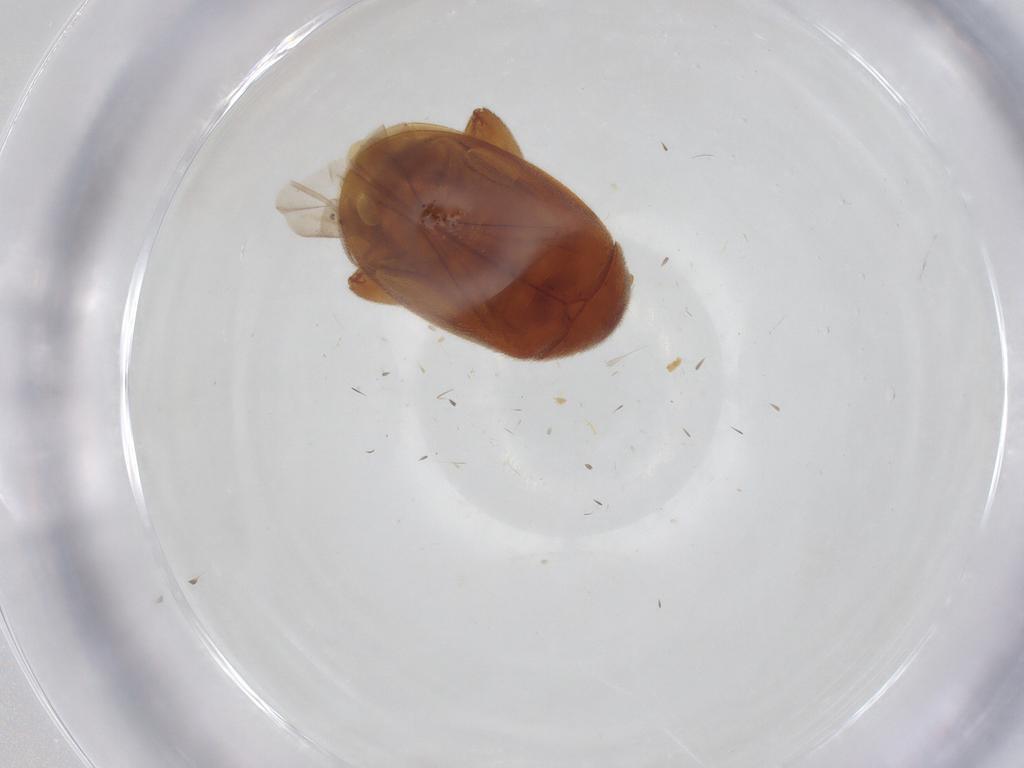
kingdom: Animalia
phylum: Arthropoda
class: Insecta
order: Coleoptera
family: Scirtidae
